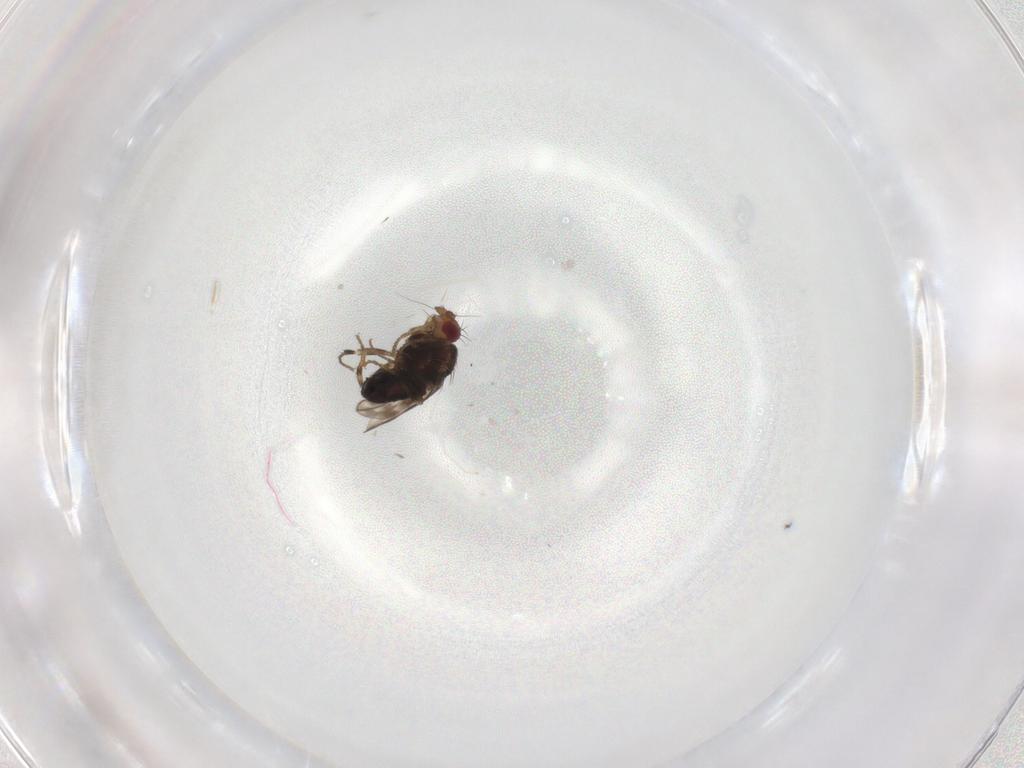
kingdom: Animalia
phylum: Arthropoda
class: Insecta
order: Diptera
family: Sphaeroceridae
